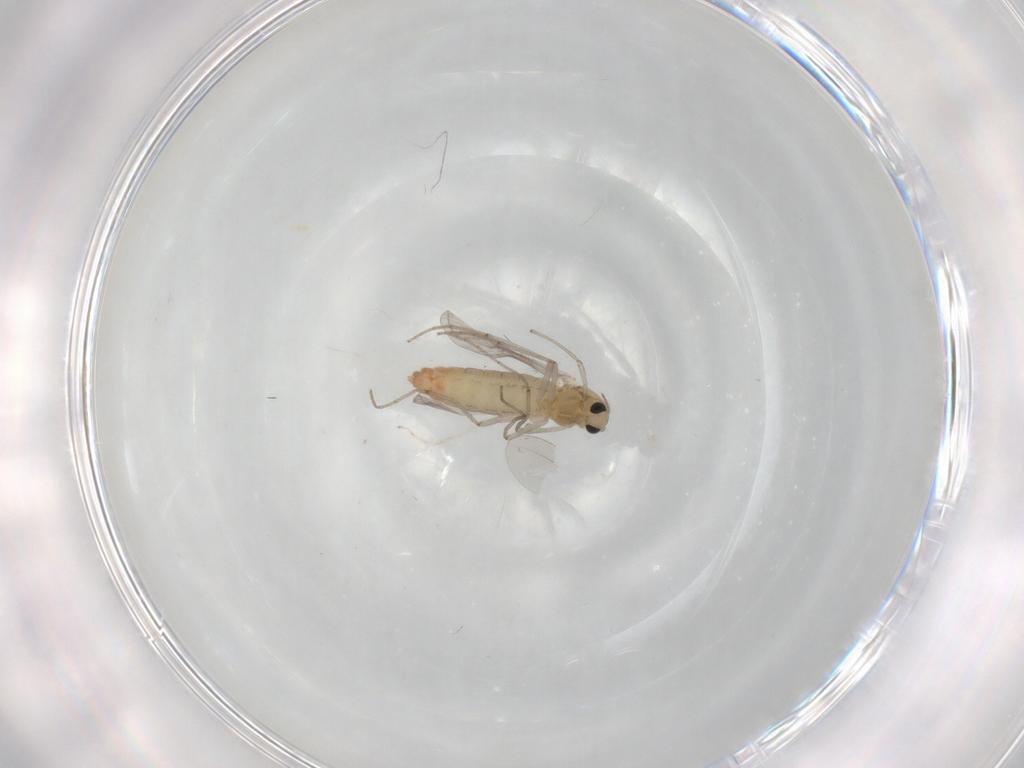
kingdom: Animalia
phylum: Arthropoda
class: Insecta
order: Diptera
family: Chironomidae
